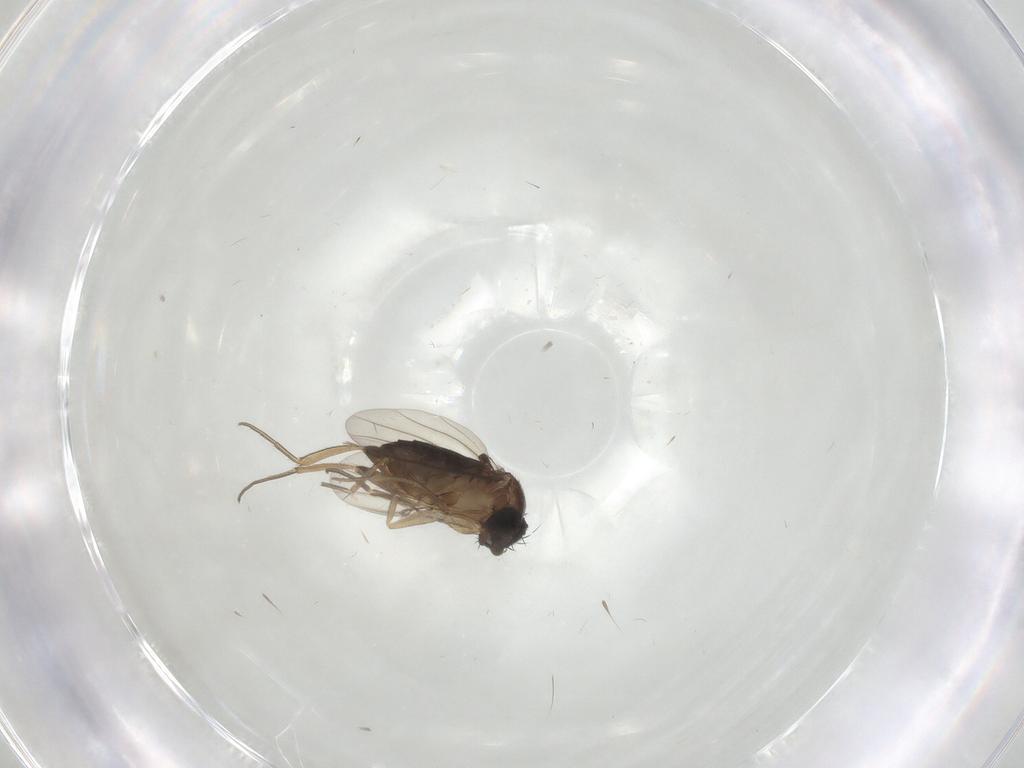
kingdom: Animalia
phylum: Arthropoda
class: Insecta
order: Diptera
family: Cecidomyiidae
